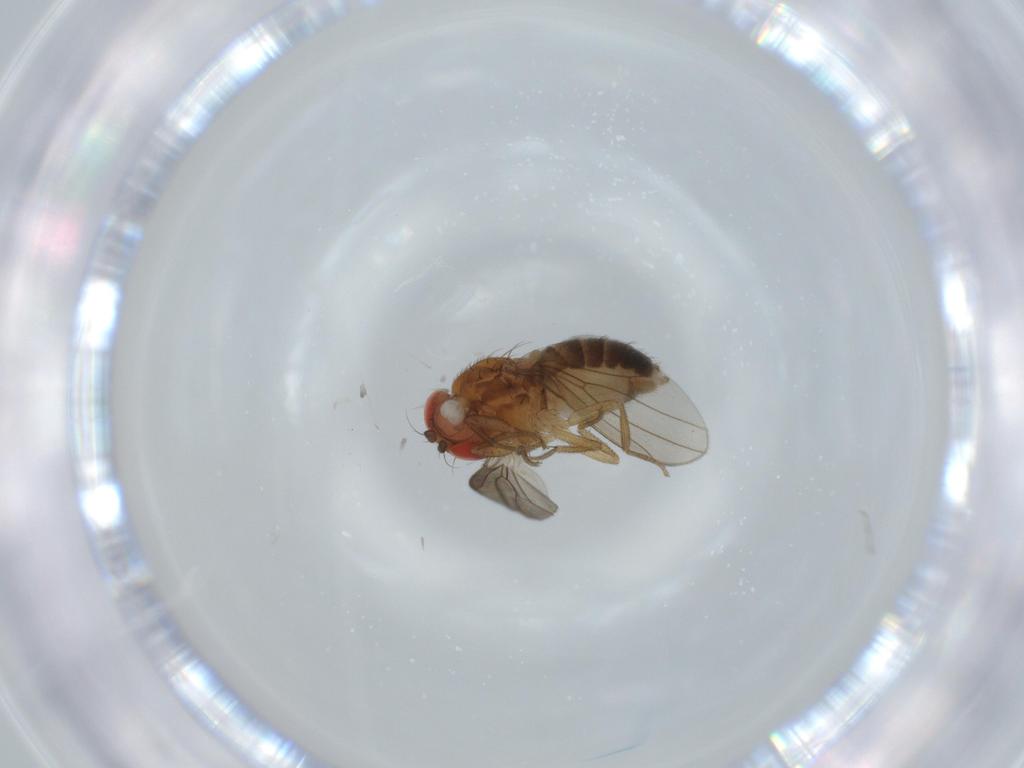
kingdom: Animalia
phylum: Arthropoda
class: Insecta
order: Diptera
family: Drosophilidae
